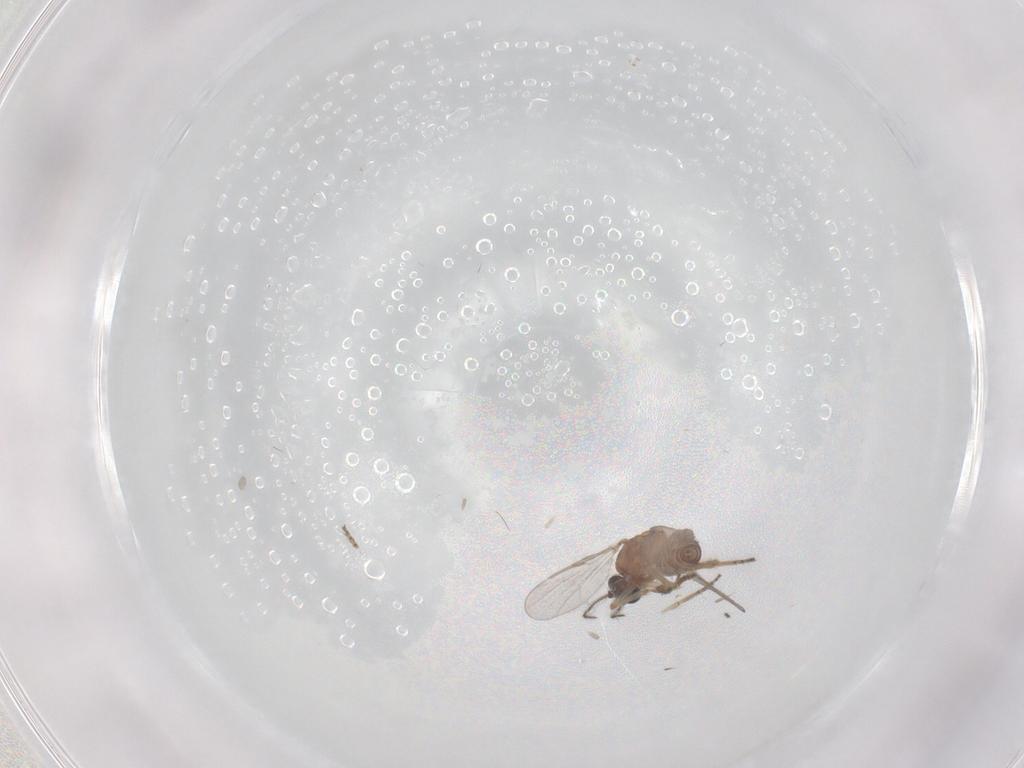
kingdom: Animalia
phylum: Arthropoda
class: Insecta
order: Diptera
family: Ceratopogonidae
